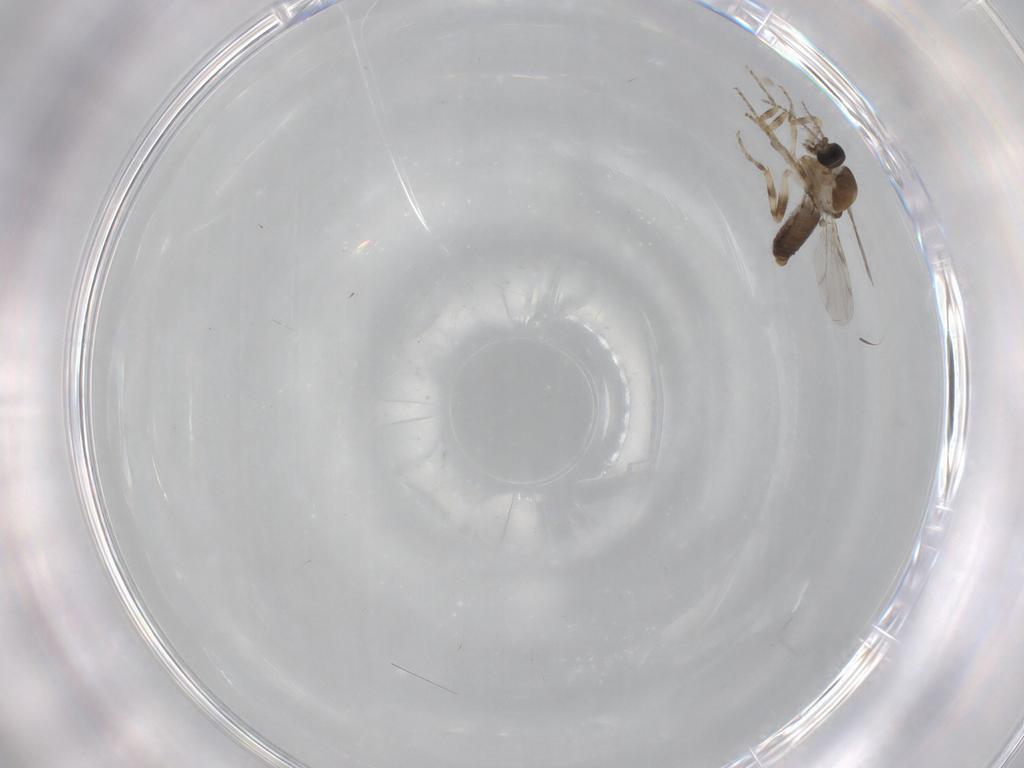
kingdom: Animalia
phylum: Arthropoda
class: Insecta
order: Diptera
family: Ceratopogonidae
